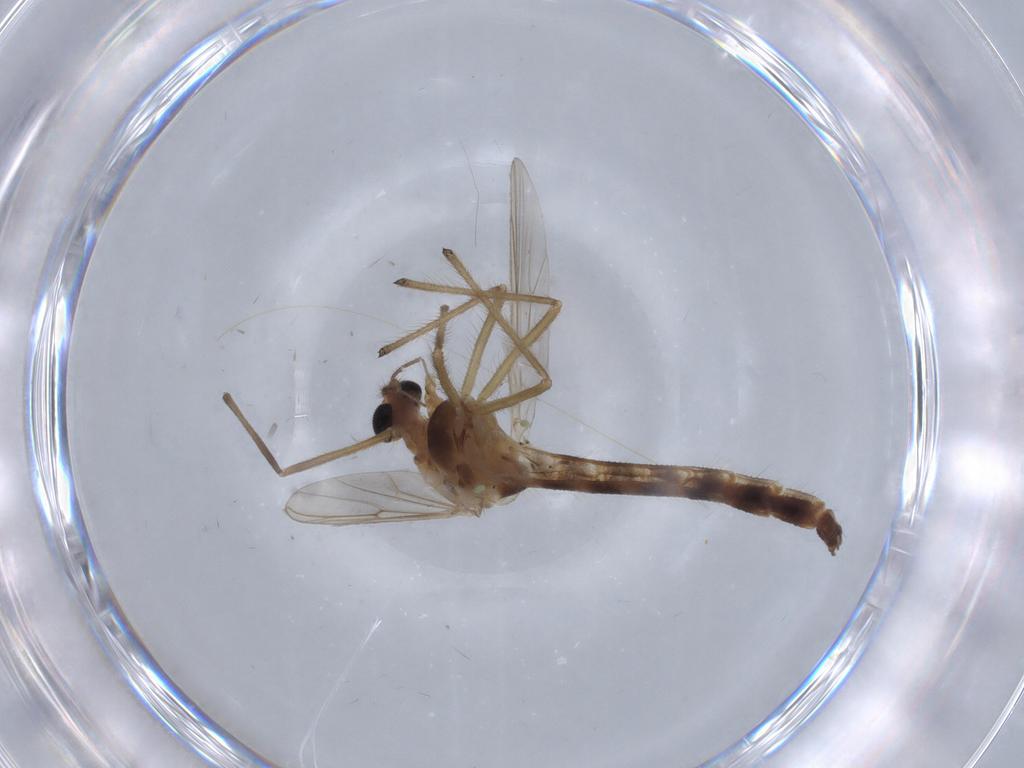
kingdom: Animalia
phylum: Arthropoda
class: Insecta
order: Diptera
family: Chironomidae
